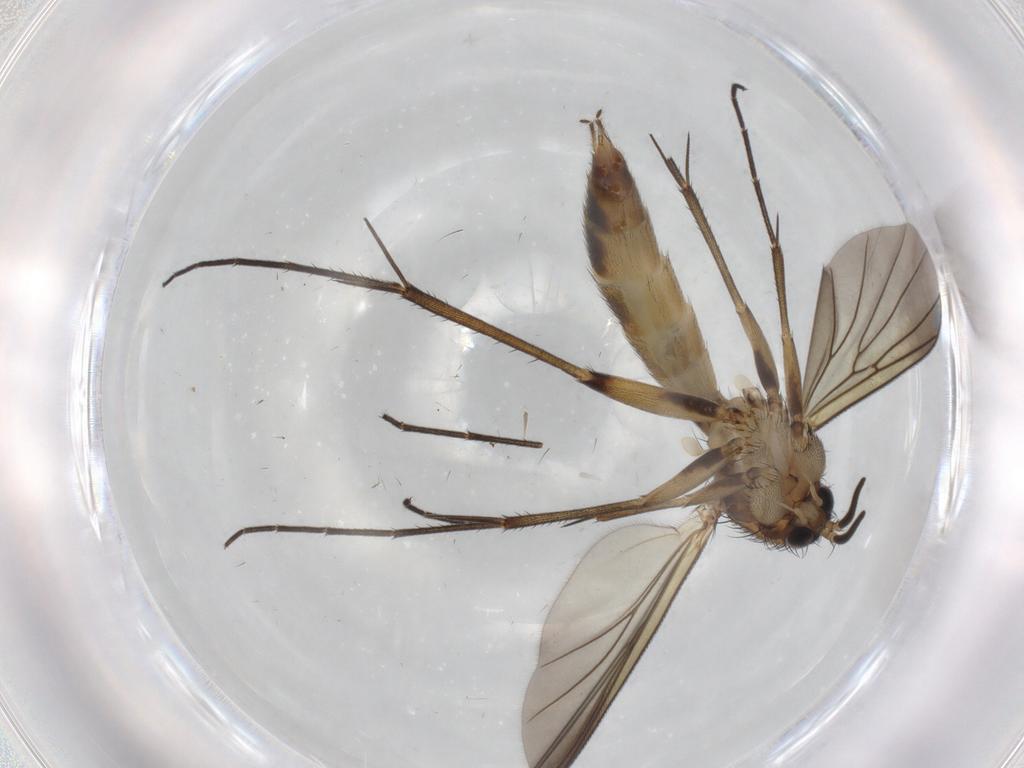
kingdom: Animalia
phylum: Arthropoda
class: Insecta
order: Diptera
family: Mycetophilidae
